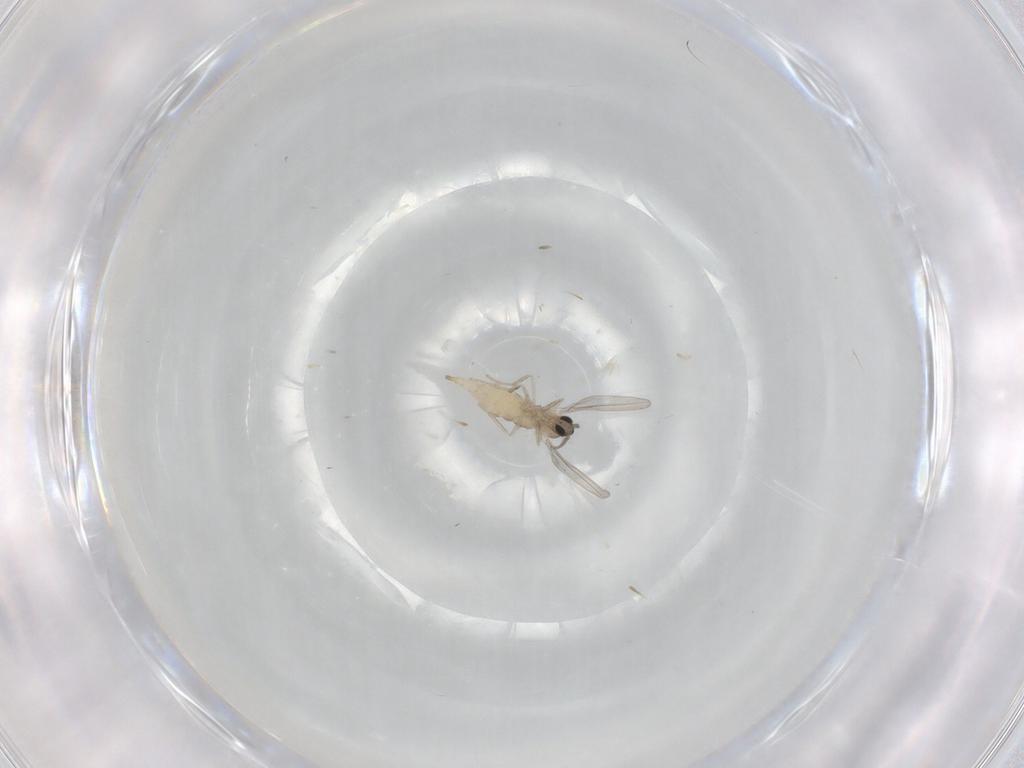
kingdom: Animalia
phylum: Arthropoda
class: Insecta
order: Diptera
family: Cecidomyiidae
